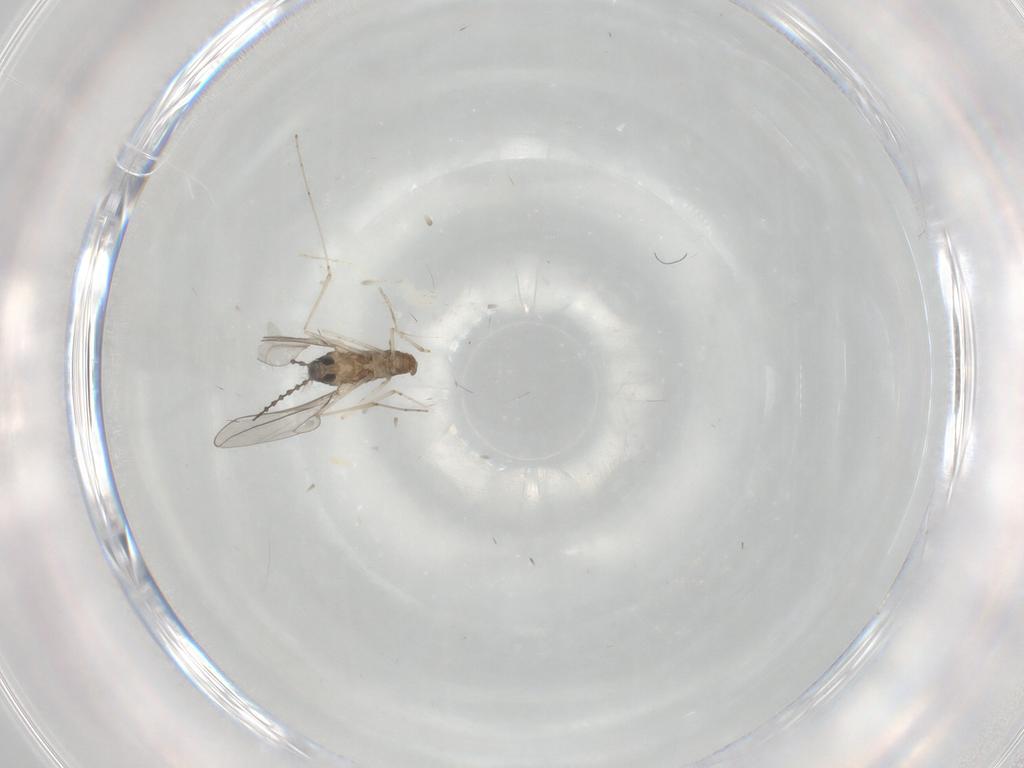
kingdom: Animalia
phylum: Arthropoda
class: Insecta
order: Diptera
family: Cecidomyiidae
